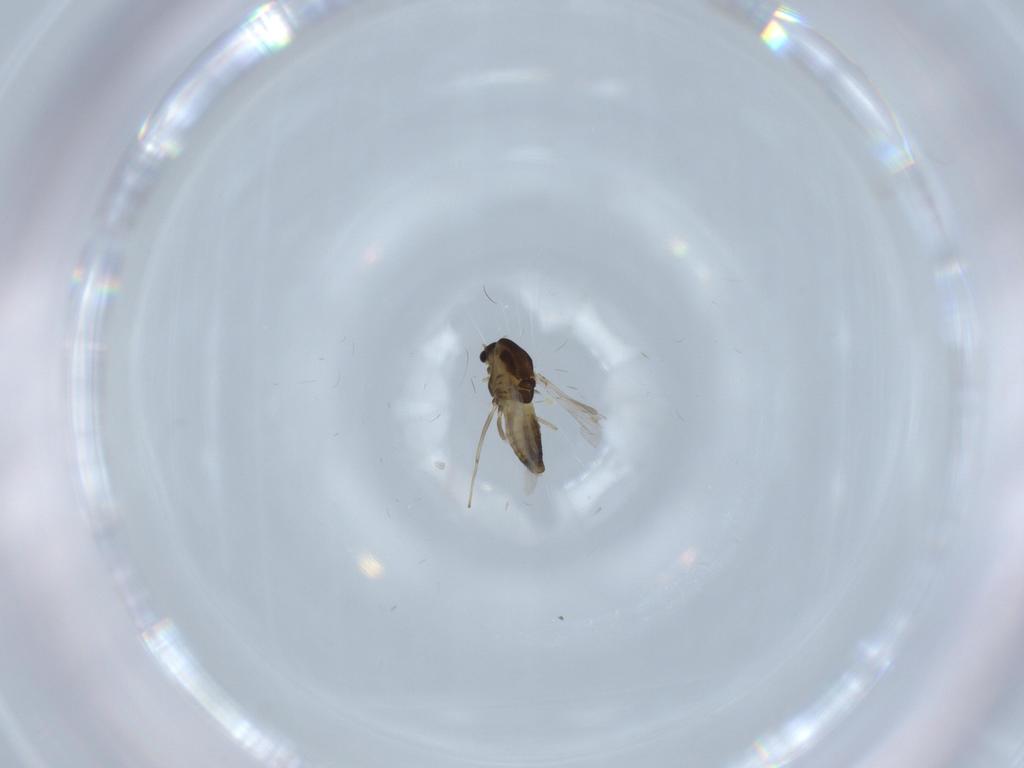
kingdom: Animalia
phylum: Arthropoda
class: Insecta
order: Diptera
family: Chironomidae
